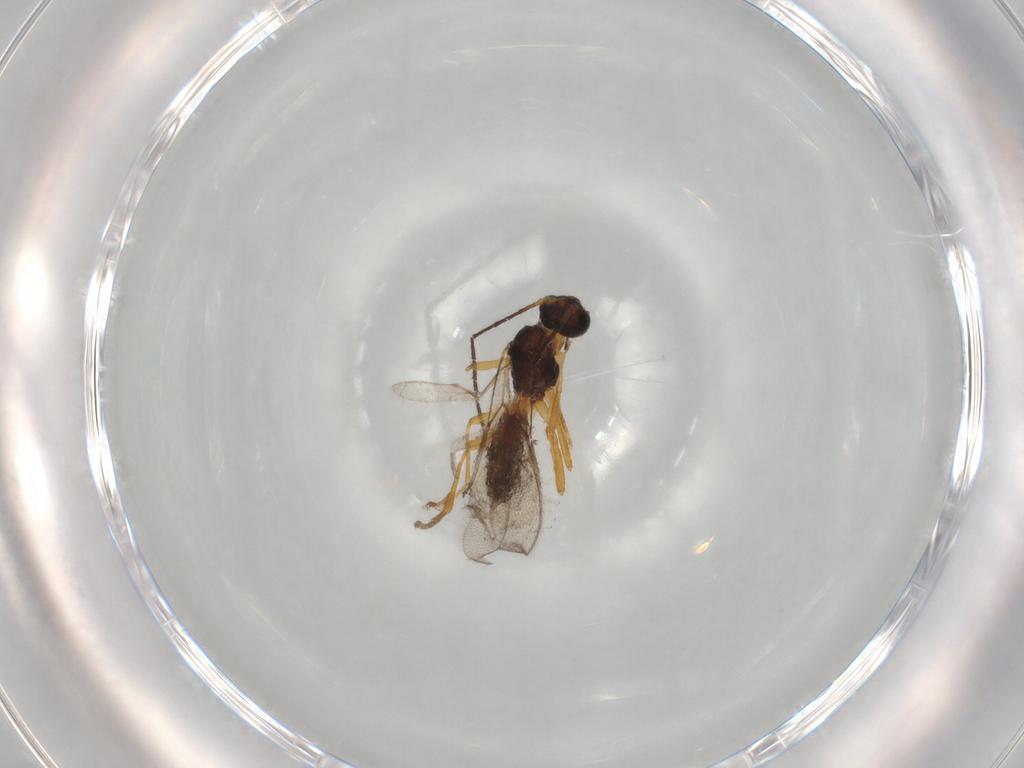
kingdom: Animalia
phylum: Arthropoda
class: Insecta
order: Hymenoptera
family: Braconidae
